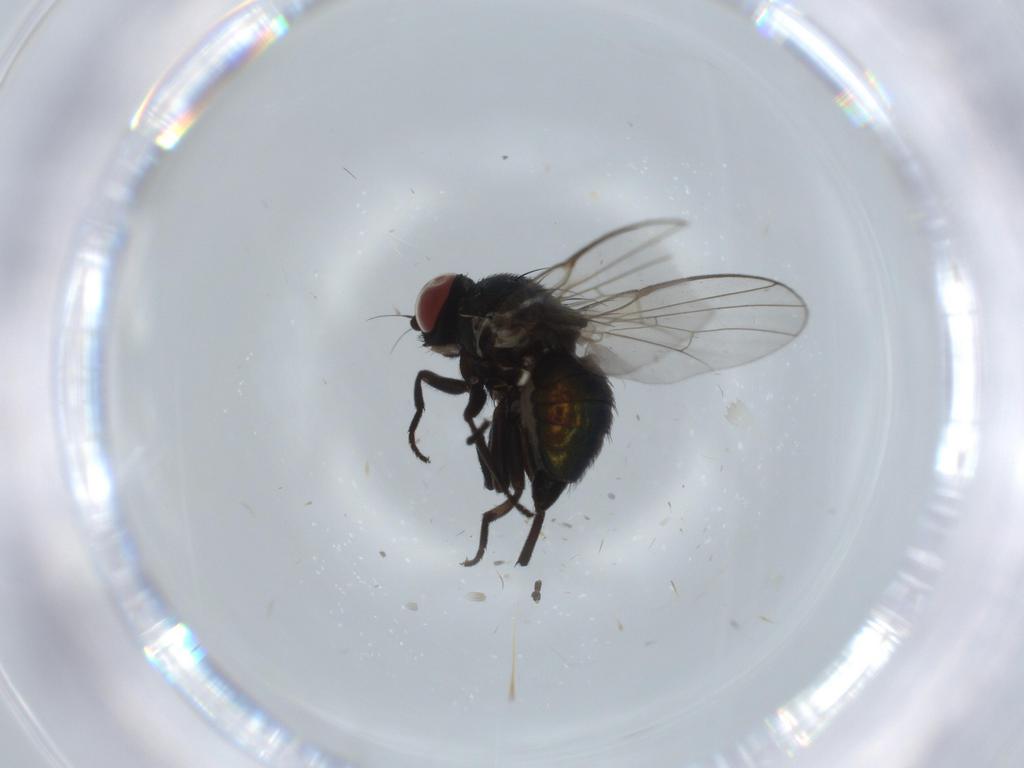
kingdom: Animalia
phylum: Arthropoda
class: Insecta
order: Diptera
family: Agromyzidae
